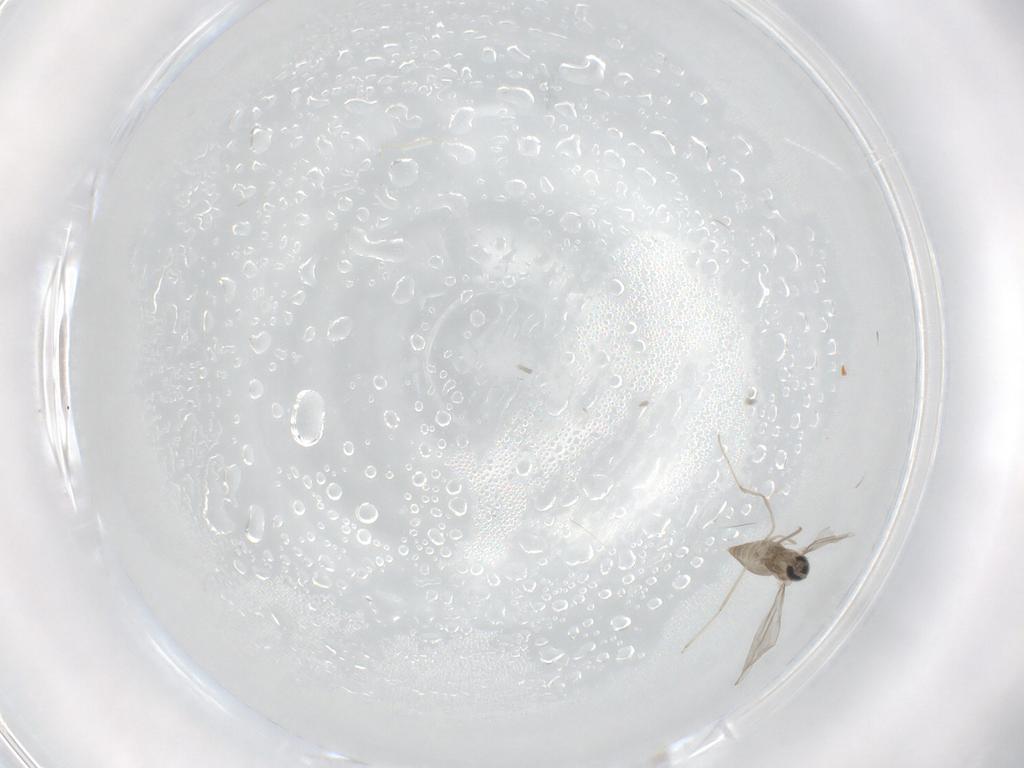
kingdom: Animalia
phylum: Arthropoda
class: Insecta
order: Diptera
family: Cecidomyiidae
